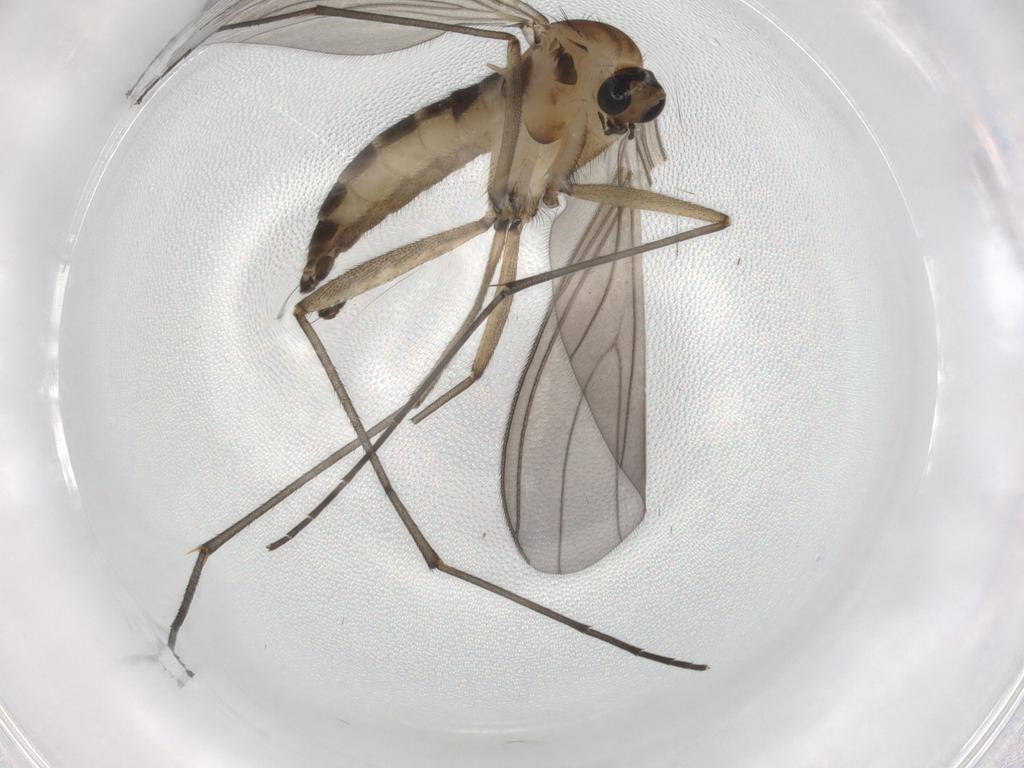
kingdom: Animalia
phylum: Arthropoda
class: Insecta
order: Diptera
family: Sciaridae
